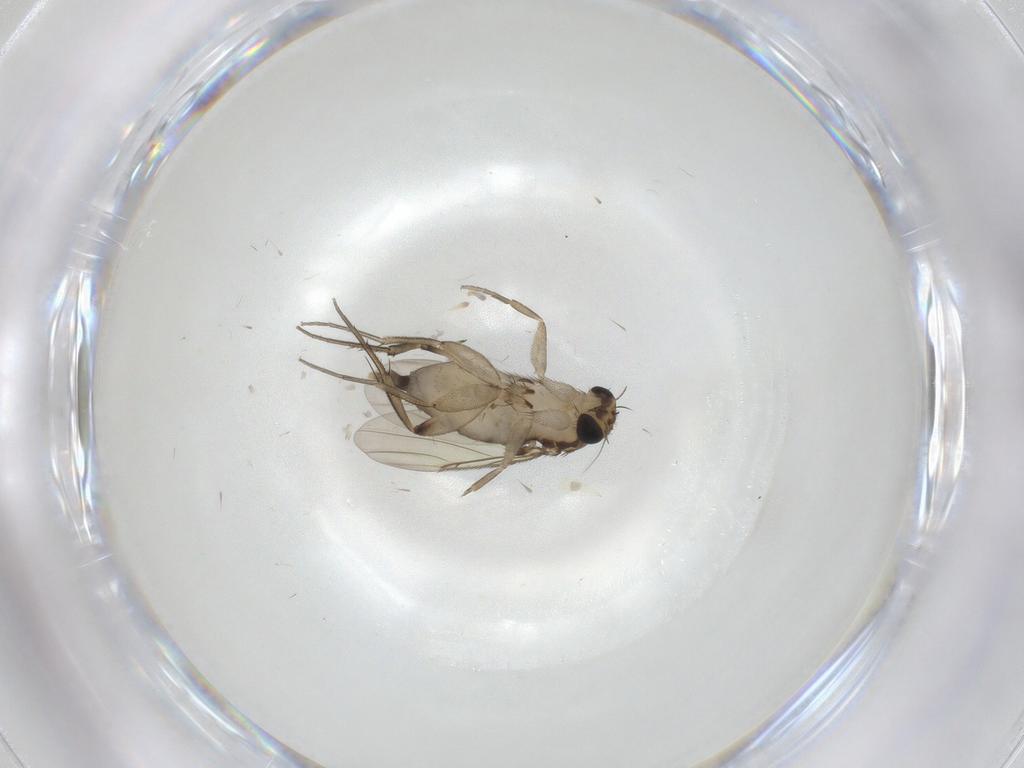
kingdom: Animalia
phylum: Arthropoda
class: Insecta
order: Diptera
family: Phoridae
